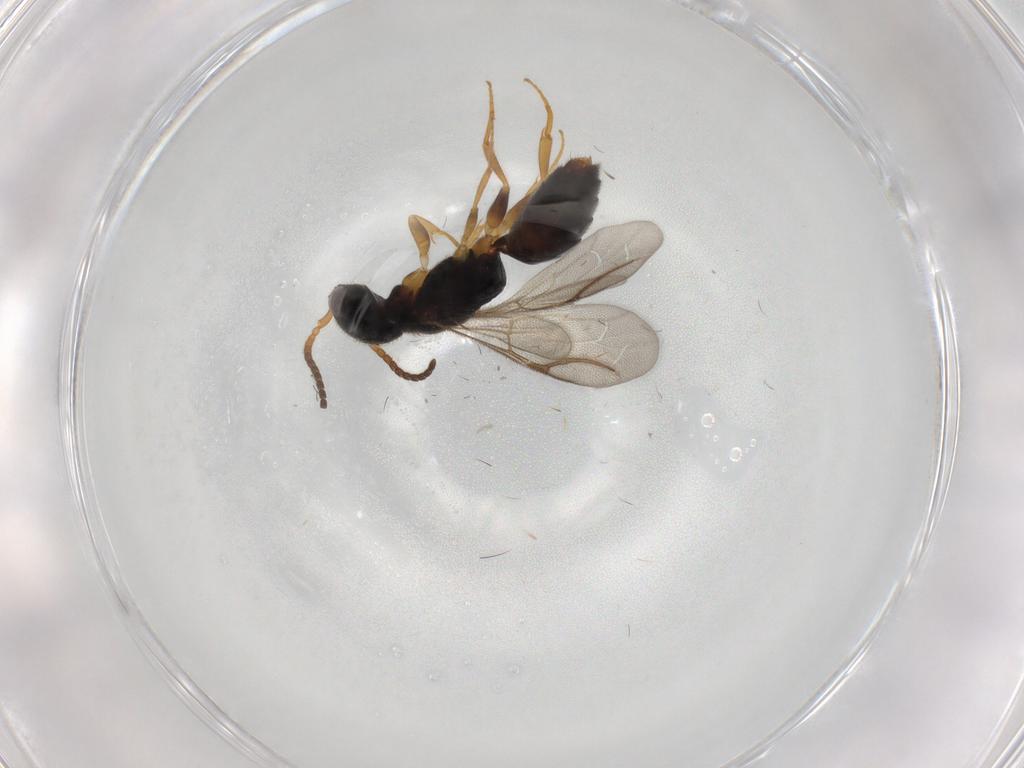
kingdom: Animalia
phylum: Arthropoda
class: Insecta
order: Hymenoptera
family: Bethylidae
